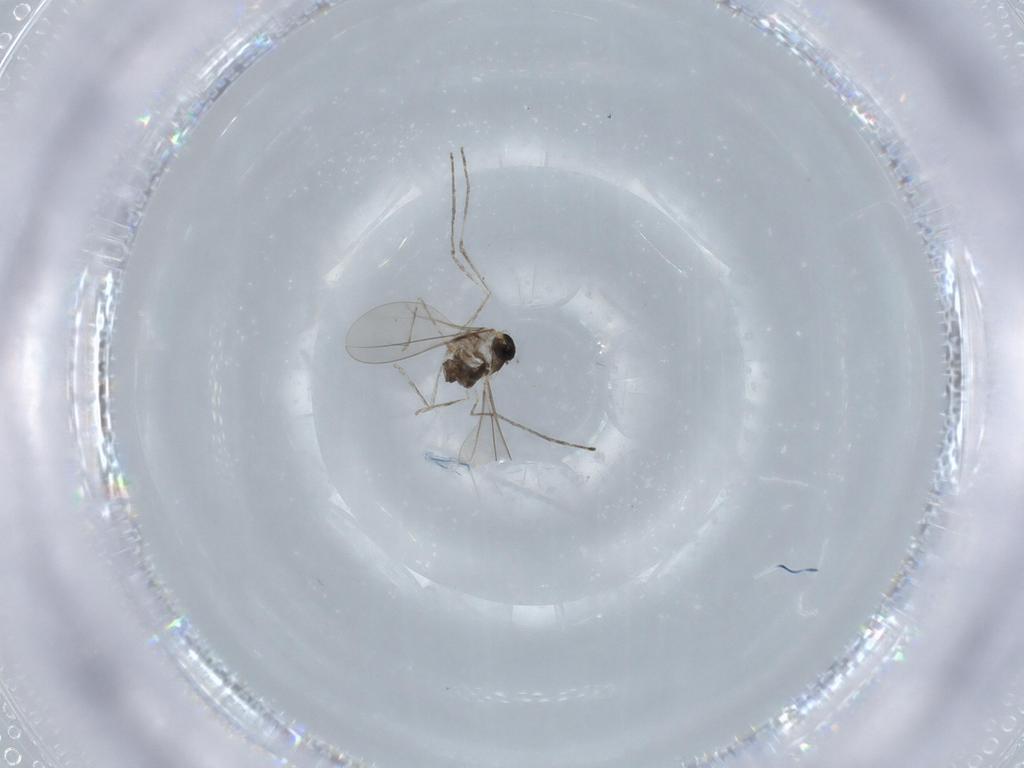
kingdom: Animalia
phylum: Arthropoda
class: Insecta
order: Diptera
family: Cecidomyiidae
